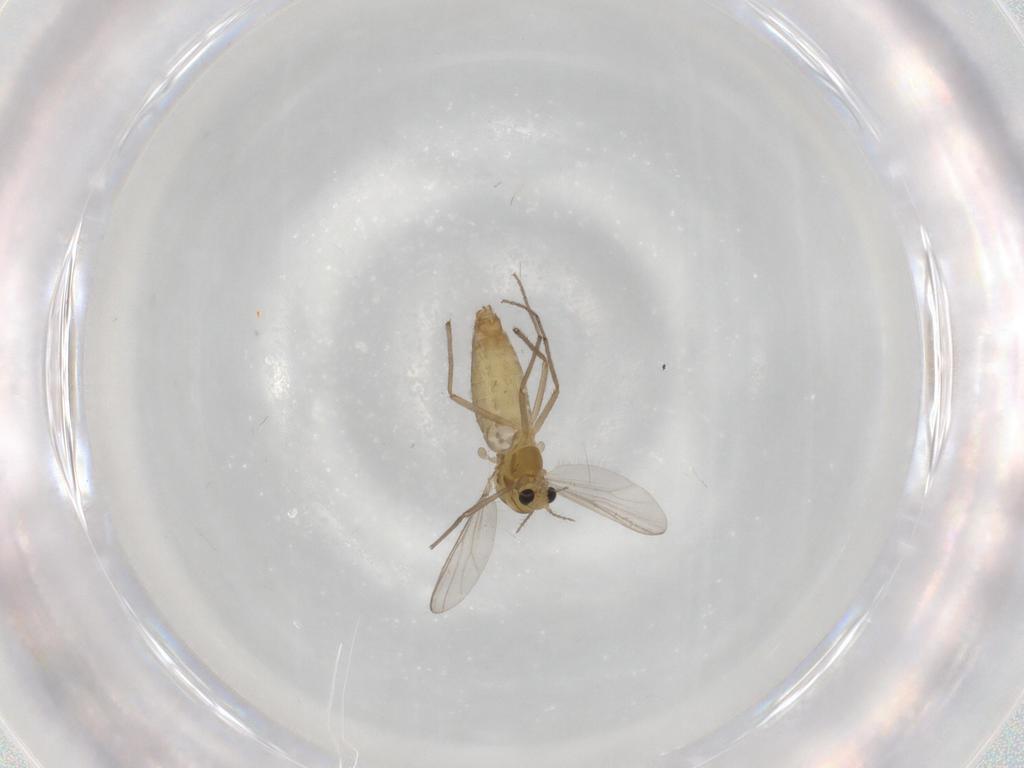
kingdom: Animalia
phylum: Arthropoda
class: Insecta
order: Diptera
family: Chironomidae
